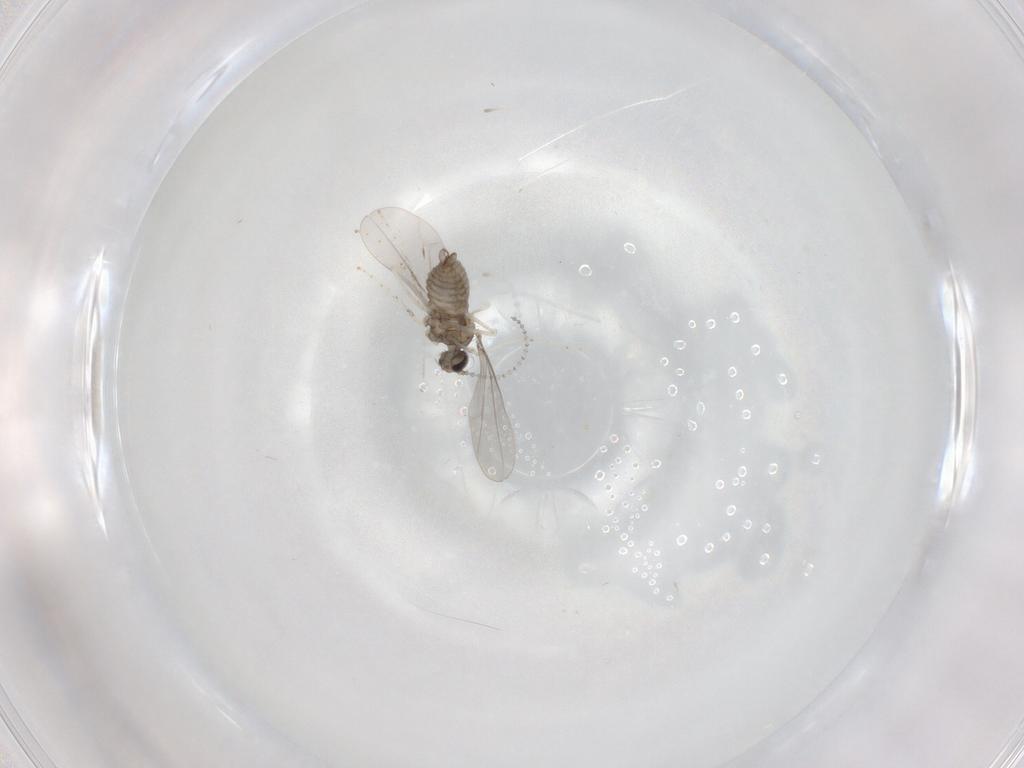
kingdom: Animalia
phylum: Arthropoda
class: Insecta
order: Diptera
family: Cecidomyiidae
